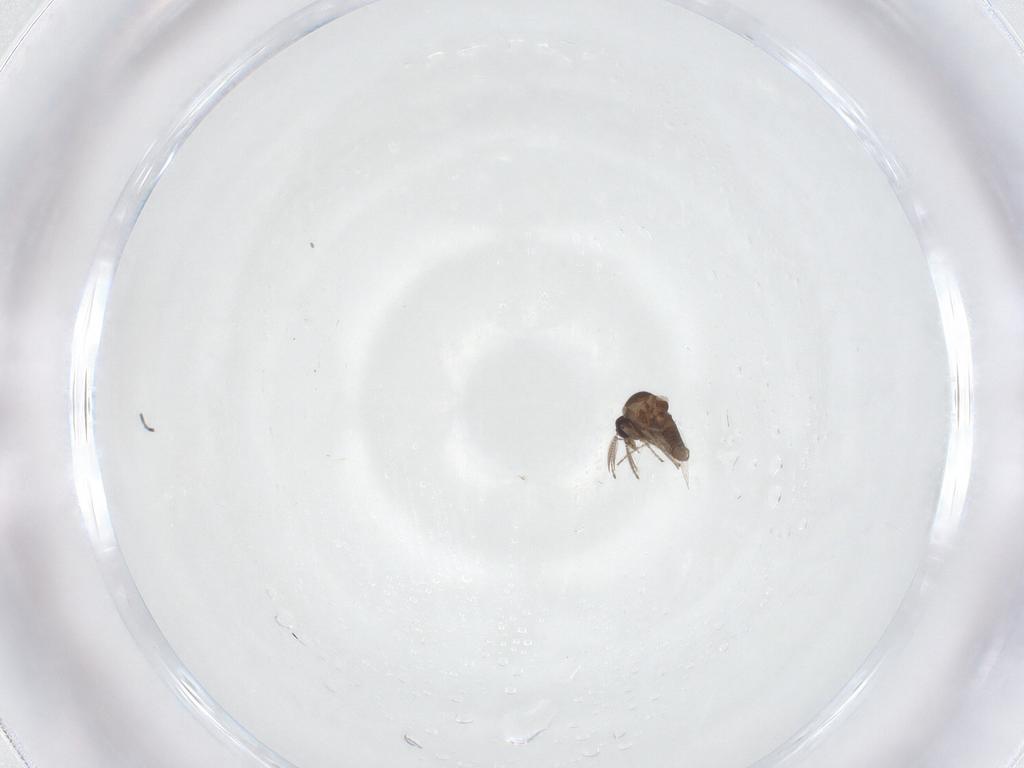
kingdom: Animalia
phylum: Arthropoda
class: Insecta
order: Diptera
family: Ceratopogonidae
